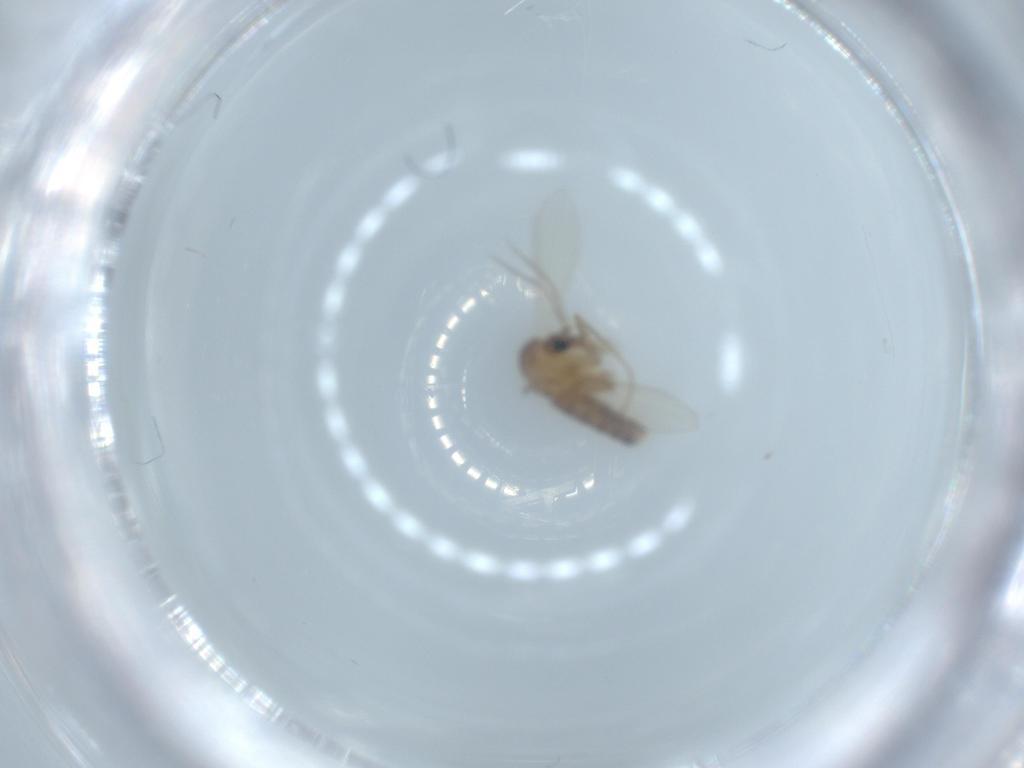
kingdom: Animalia
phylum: Arthropoda
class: Insecta
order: Diptera
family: Psychodidae
